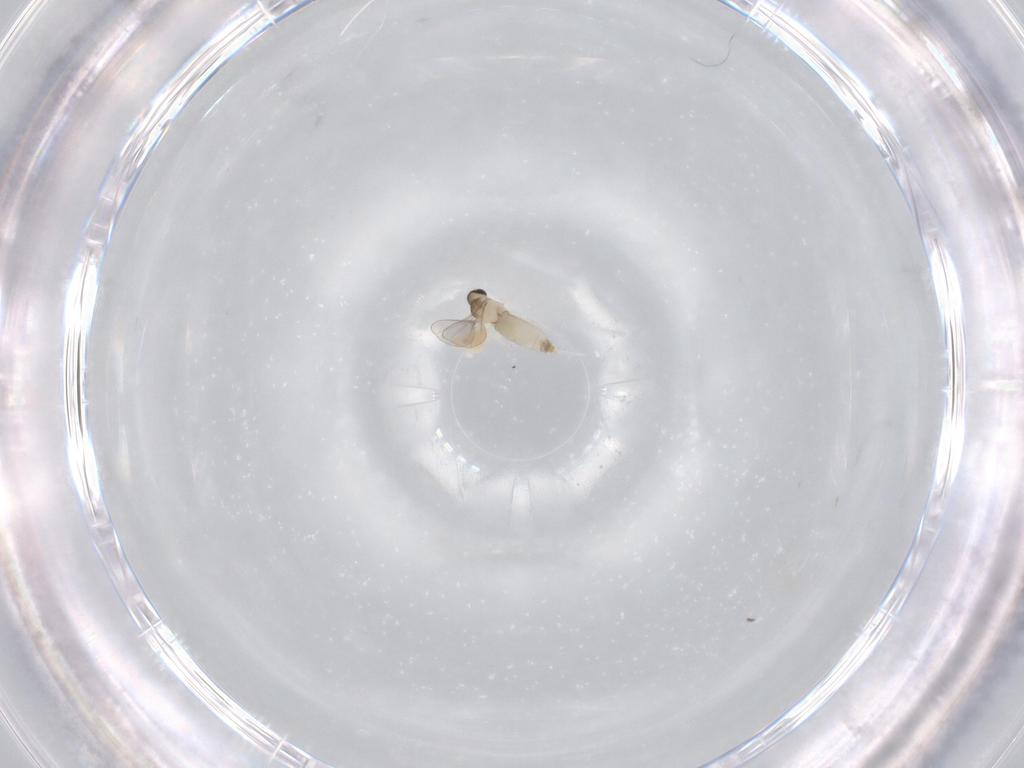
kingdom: Animalia
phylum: Arthropoda
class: Insecta
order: Diptera
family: Cecidomyiidae
